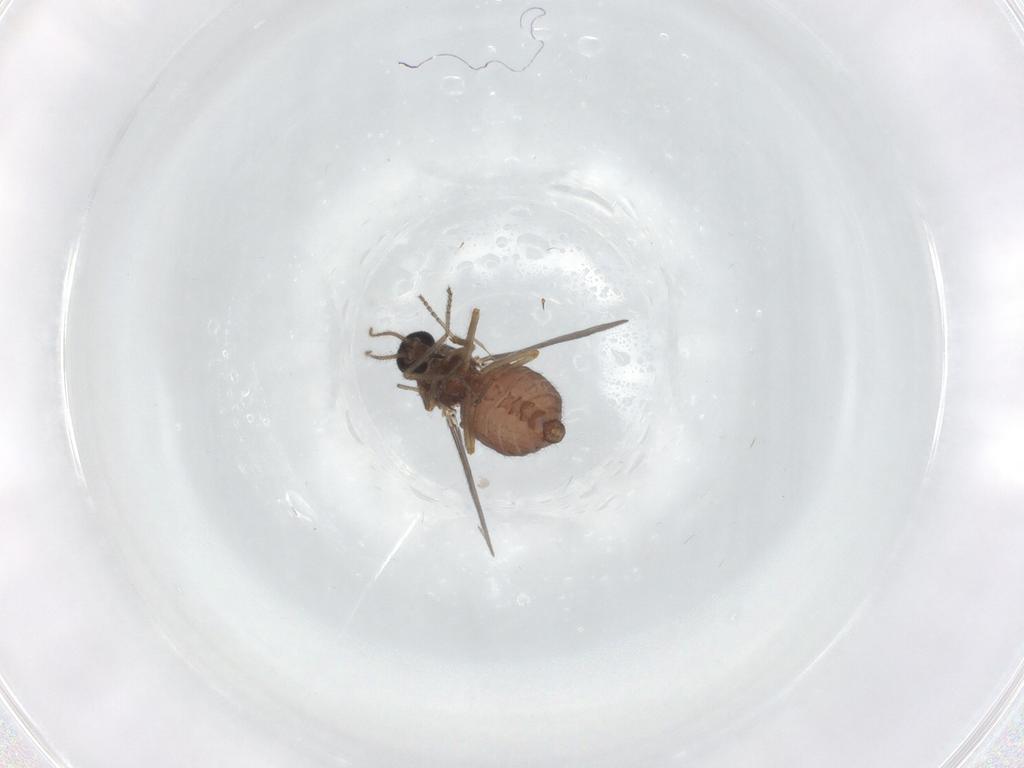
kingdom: Animalia
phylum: Arthropoda
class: Insecta
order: Diptera
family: Ceratopogonidae
